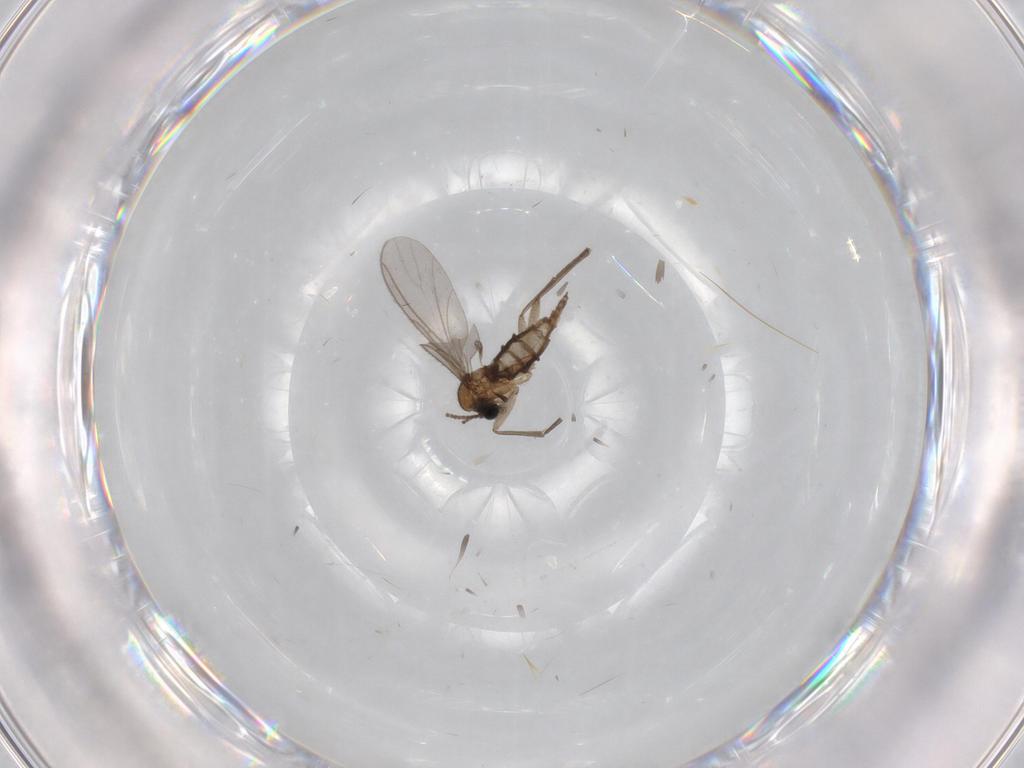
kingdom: Animalia
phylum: Arthropoda
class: Insecta
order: Diptera
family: Sciaridae
